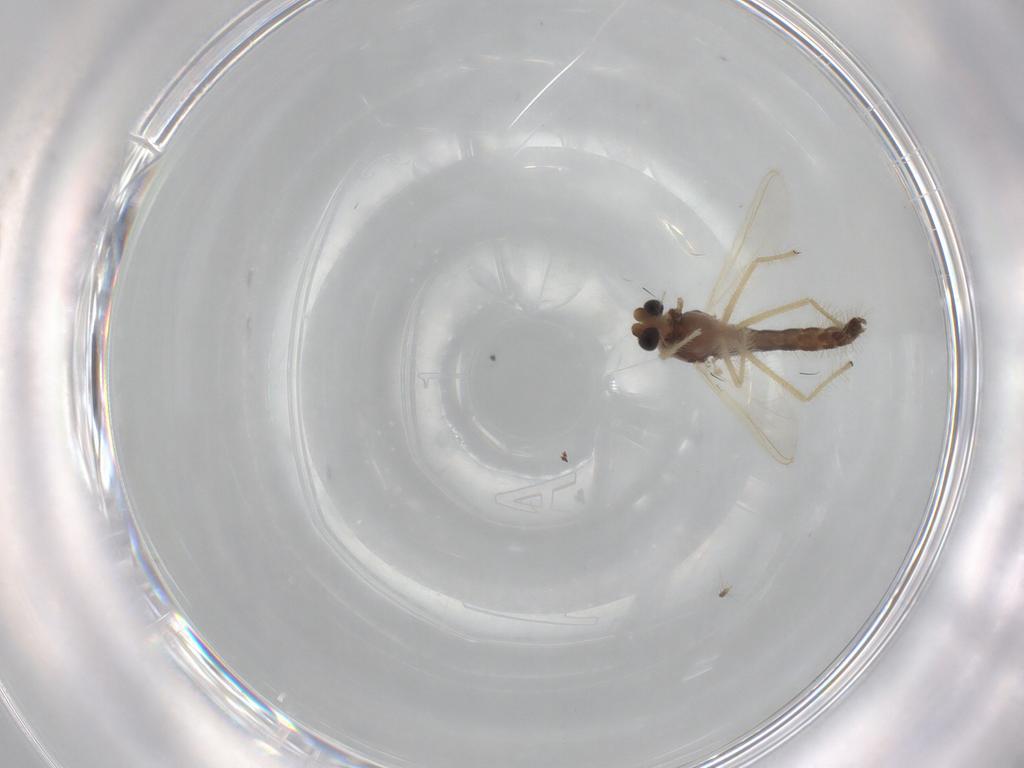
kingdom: Animalia
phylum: Arthropoda
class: Insecta
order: Diptera
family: Chironomidae
